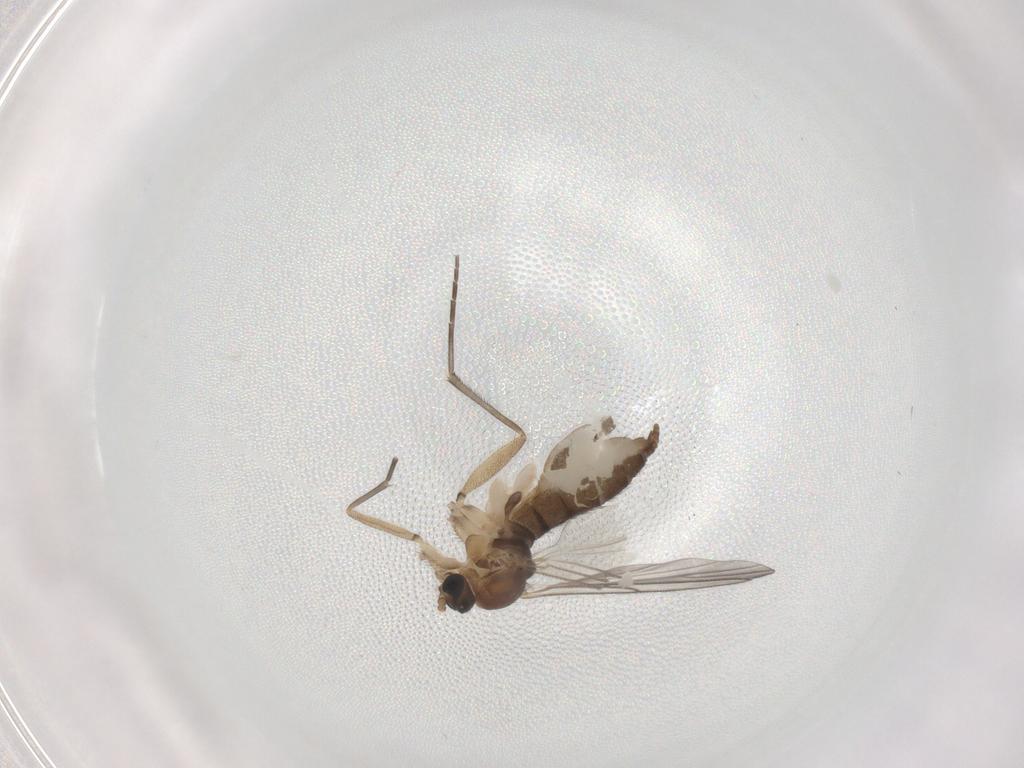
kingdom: Animalia
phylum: Arthropoda
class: Insecta
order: Diptera
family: Sciaridae
